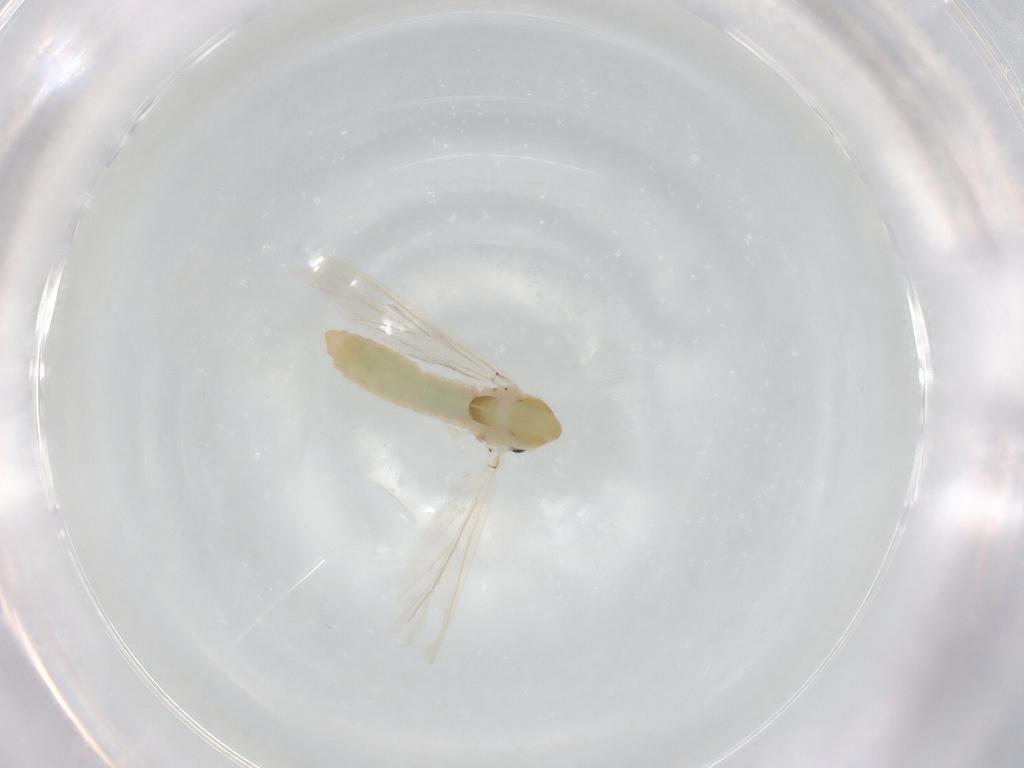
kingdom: Animalia
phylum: Arthropoda
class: Insecta
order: Diptera
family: Chironomidae
